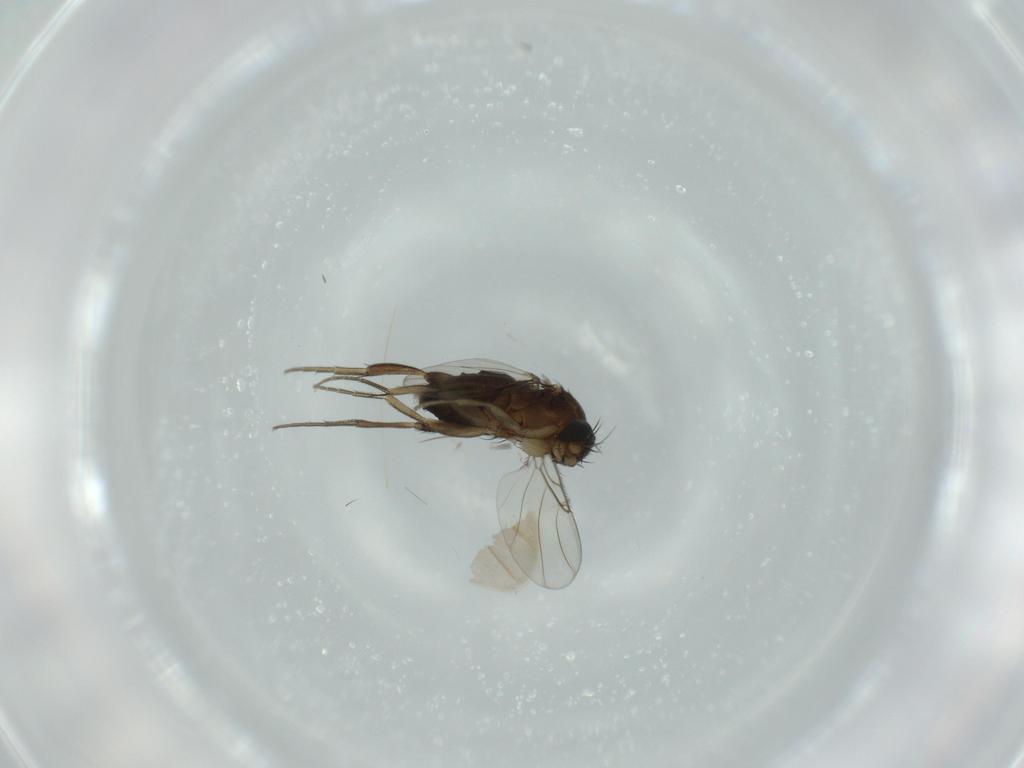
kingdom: Animalia
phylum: Arthropoda
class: Insecta
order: Diptera
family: Phoridae
